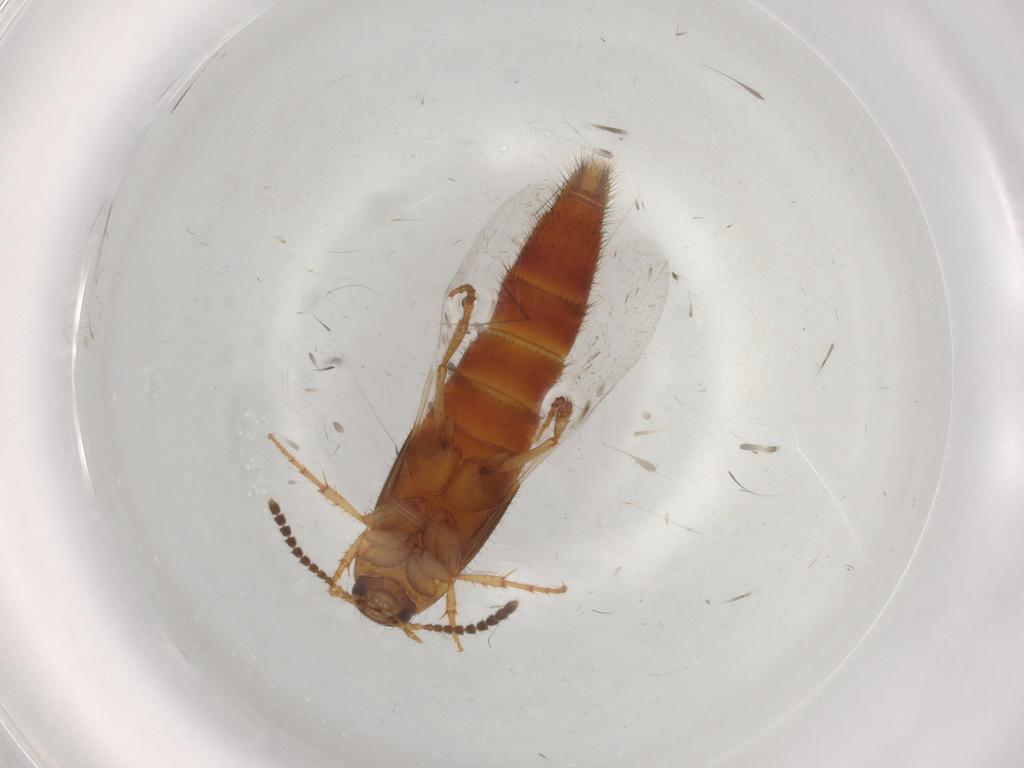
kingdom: Animalia
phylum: Arthropoda
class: Insecta
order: Coleoptera
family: Staphylinidae
